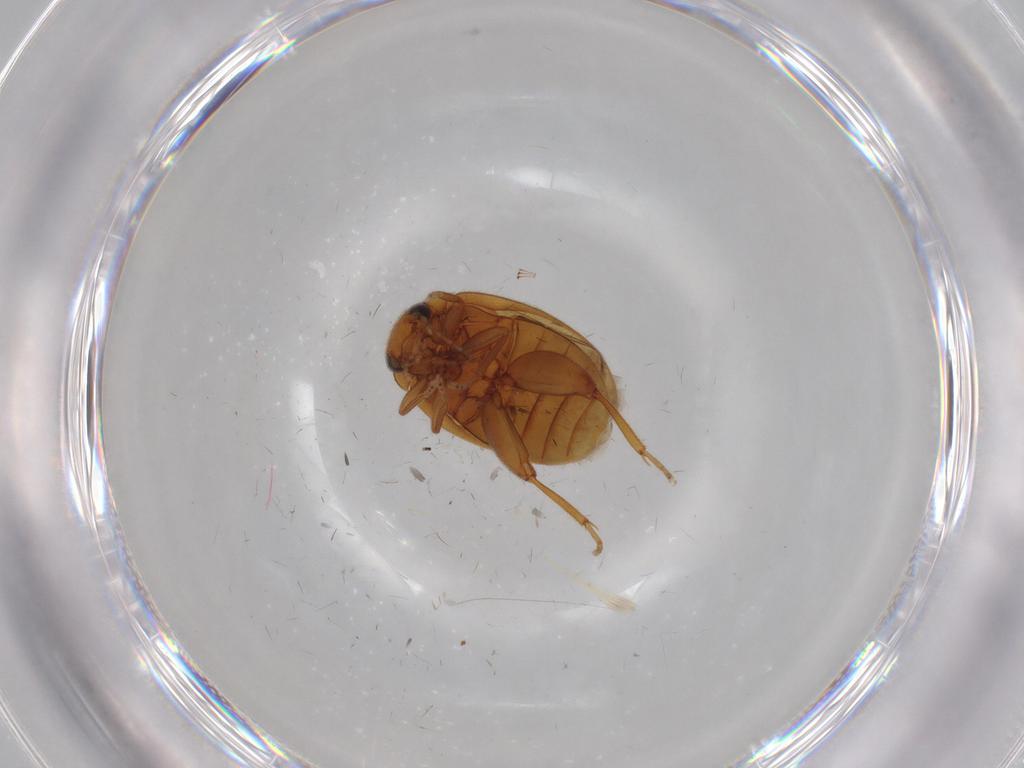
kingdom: Animalia
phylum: Arthropoda
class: Insecta
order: Coleoptera
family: Scirtidae
